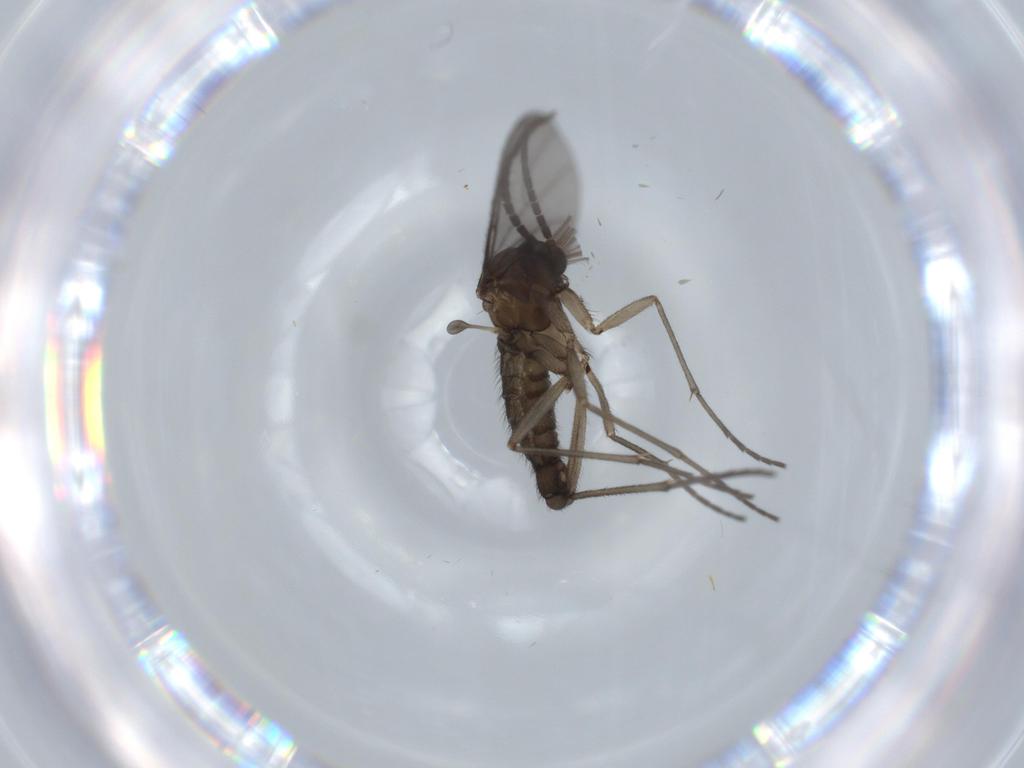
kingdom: Animalia
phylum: Arthropoda
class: Insecta
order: Diptera
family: Sciaridae
